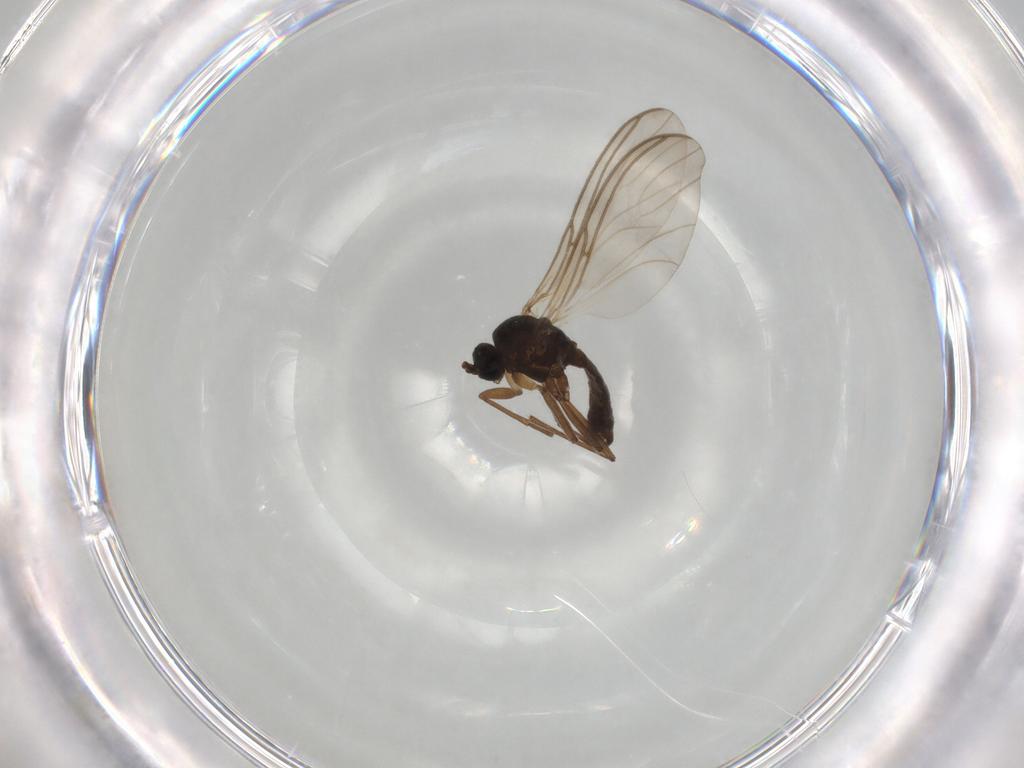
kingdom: Animalia
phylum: Arthropoda
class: Insecta
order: Diptera
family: Sciaridae
